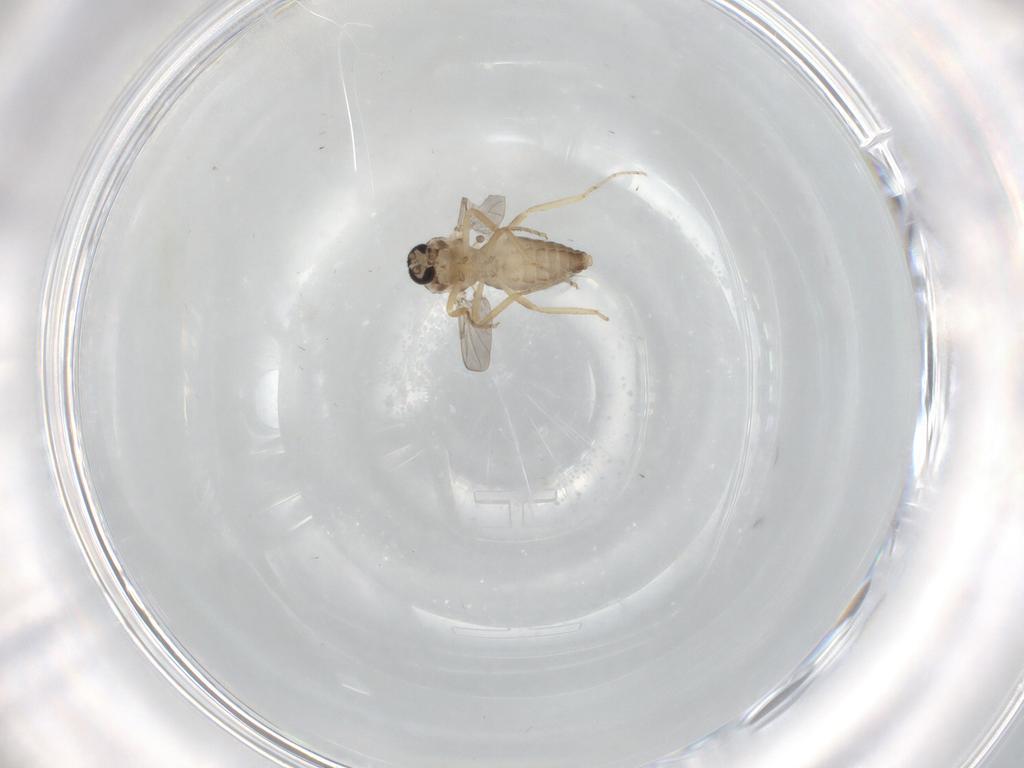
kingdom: Animalia
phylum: Arthropoda
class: Insecta
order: Diptera
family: Ceratopogonidae
